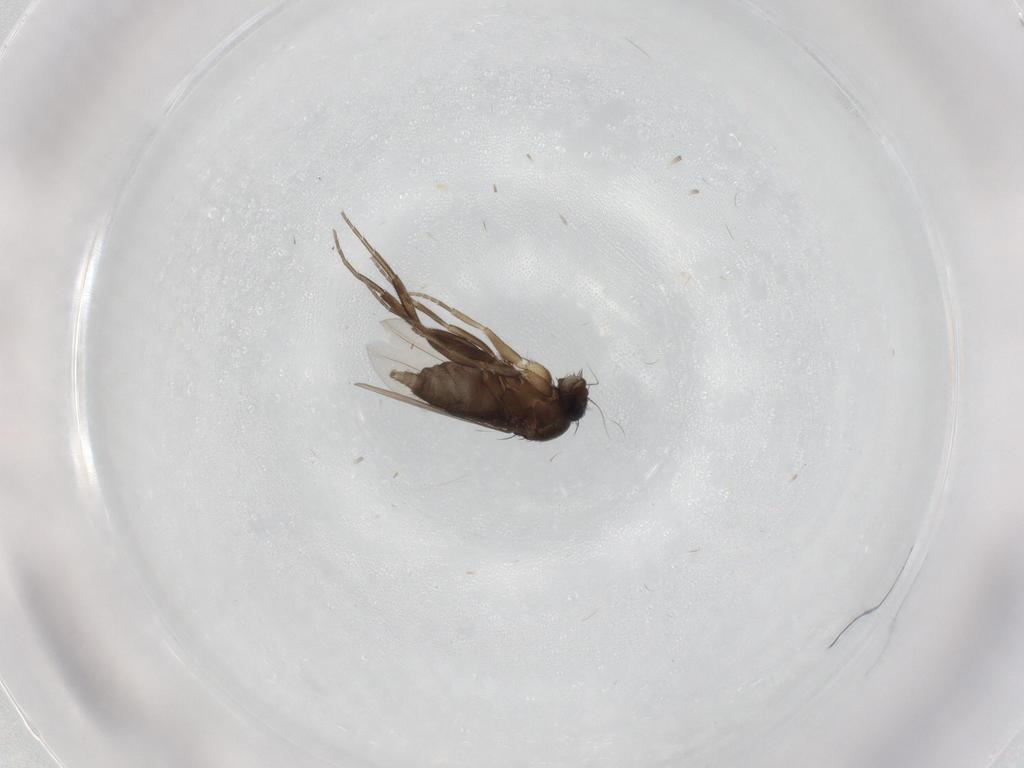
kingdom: Animalia
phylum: Arthropoda
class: Insecta
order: Diptera
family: Phoridae
